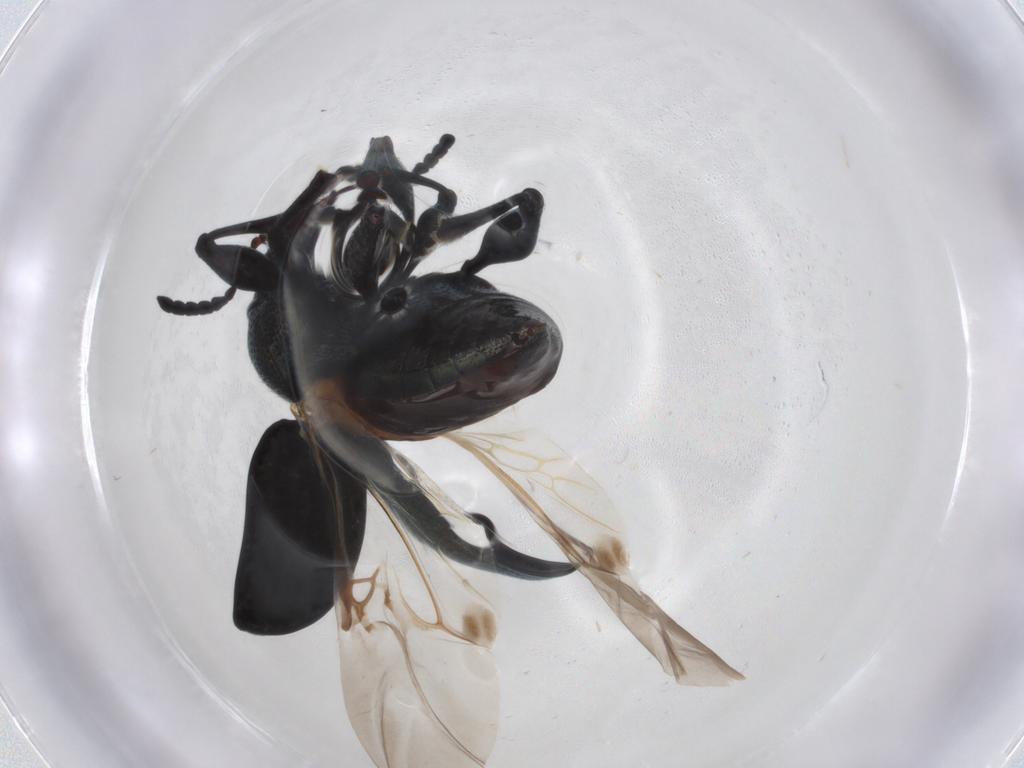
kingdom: Animalia
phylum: Arthropoda
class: Insecta
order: Coleoptera
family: Chrysomelidae
